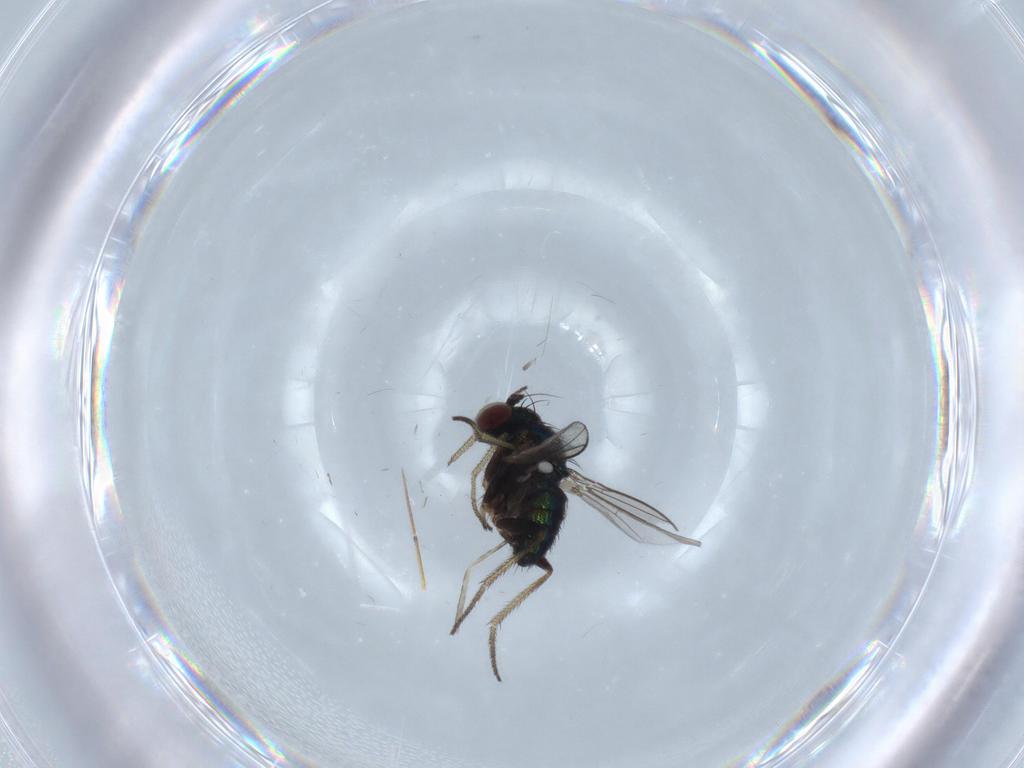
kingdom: Animalia
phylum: Arthropoda
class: Insecta
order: Diptera
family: Cecidomyiidae
